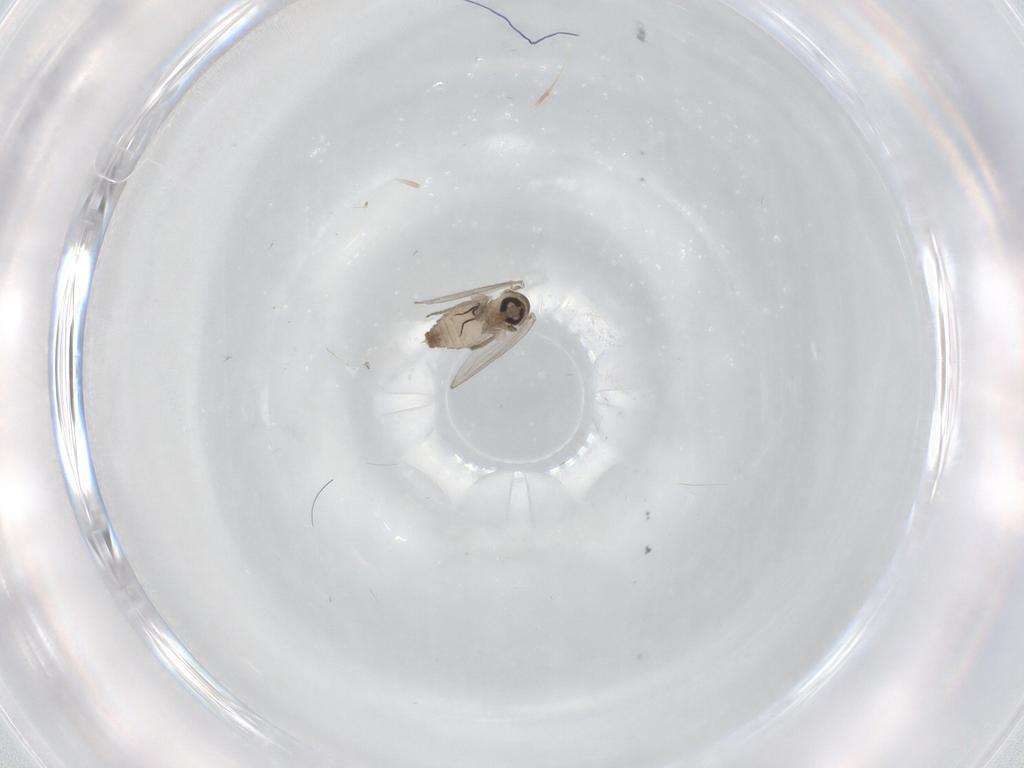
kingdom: Animalia
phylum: Arthropoda
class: Insecta
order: Diptera
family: Psychodidae
